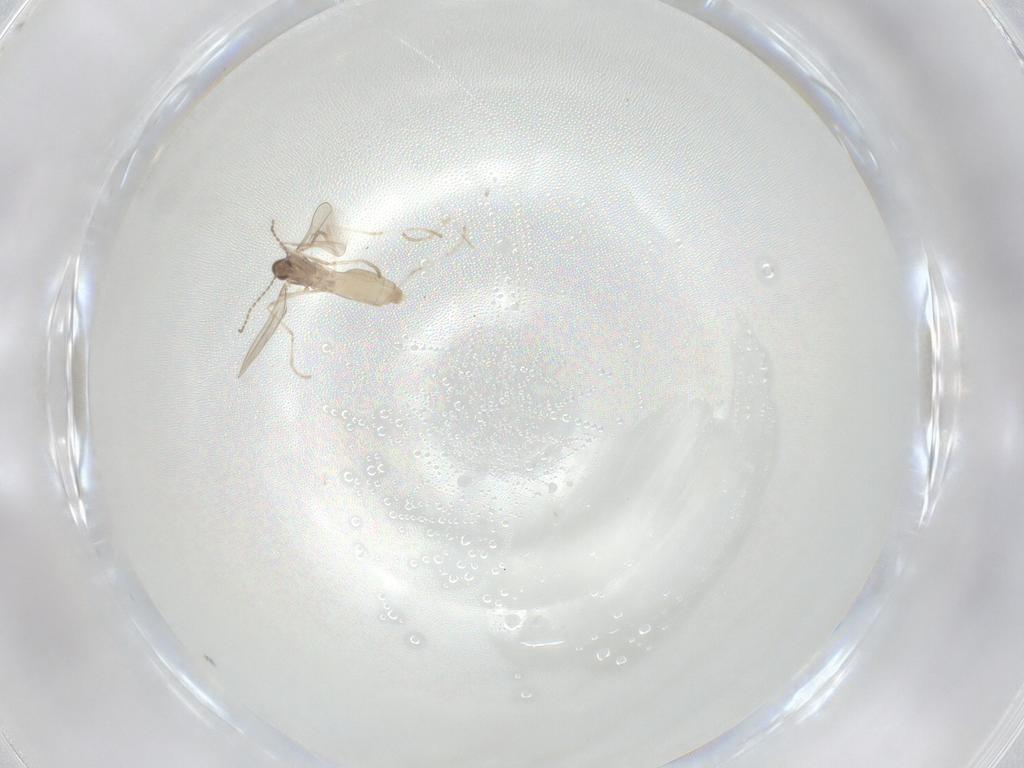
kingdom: Animalia
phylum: Arthropoda
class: Insecta
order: Diptera
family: Cecidomyiidae
